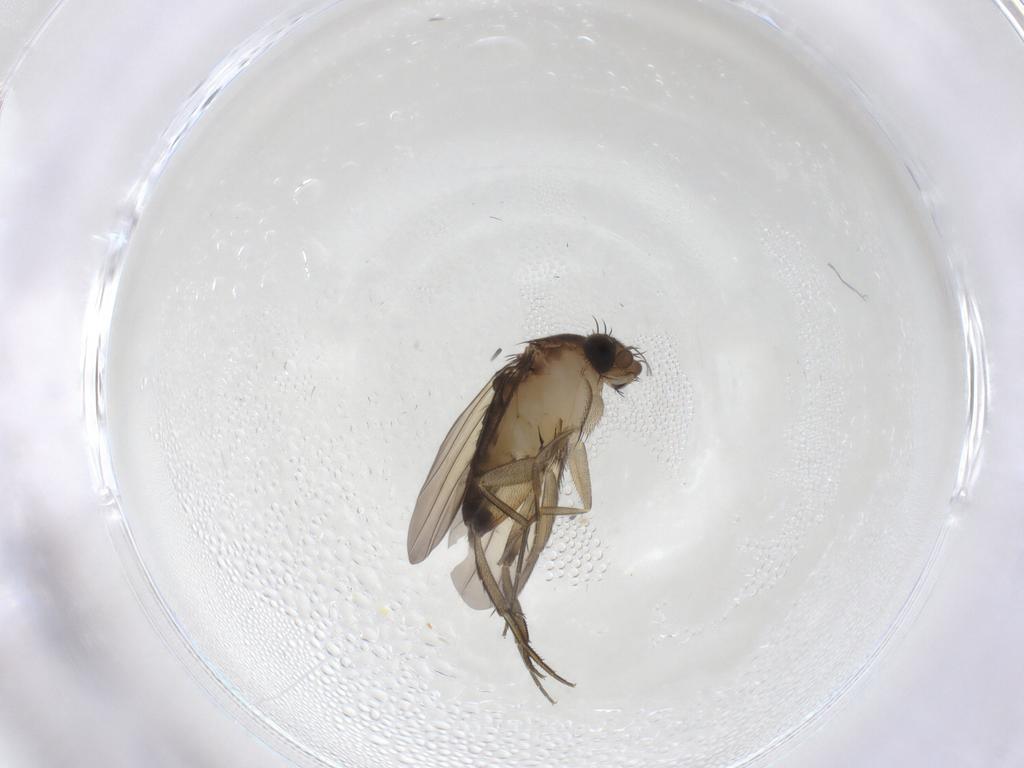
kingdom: Animalia
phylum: Arthropoda
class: Insecta
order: Diptera
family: Phoridae
